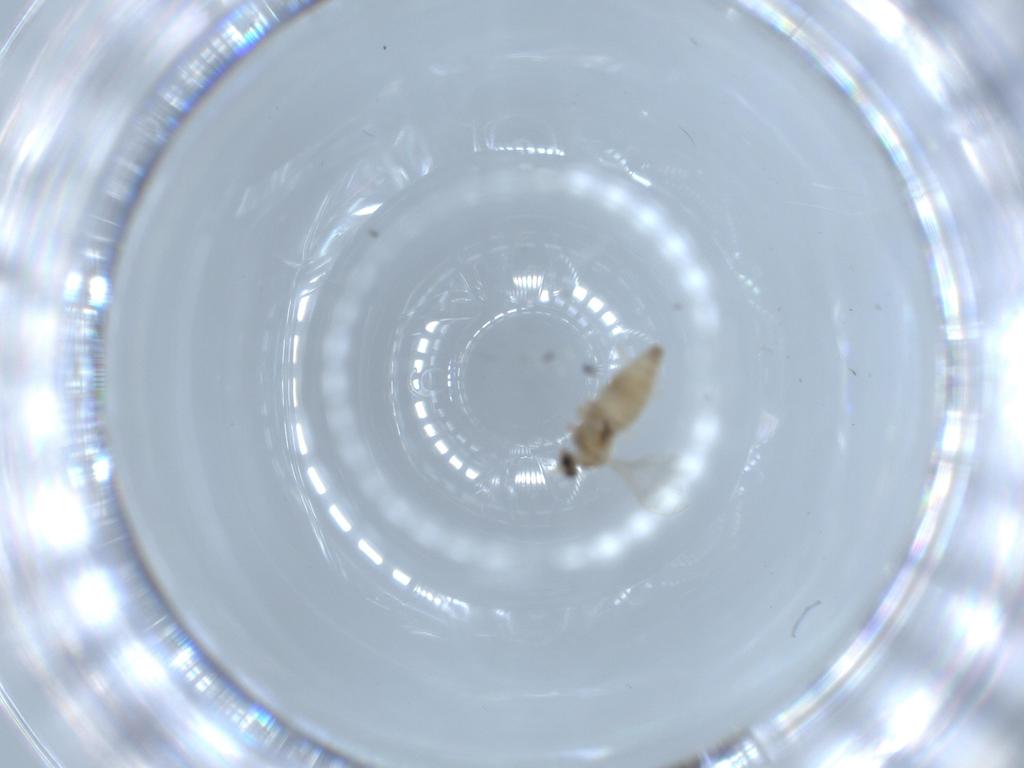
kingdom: Animalia
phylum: Arthropoda
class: Insecta
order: Diptera
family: Cecidomyiidae
